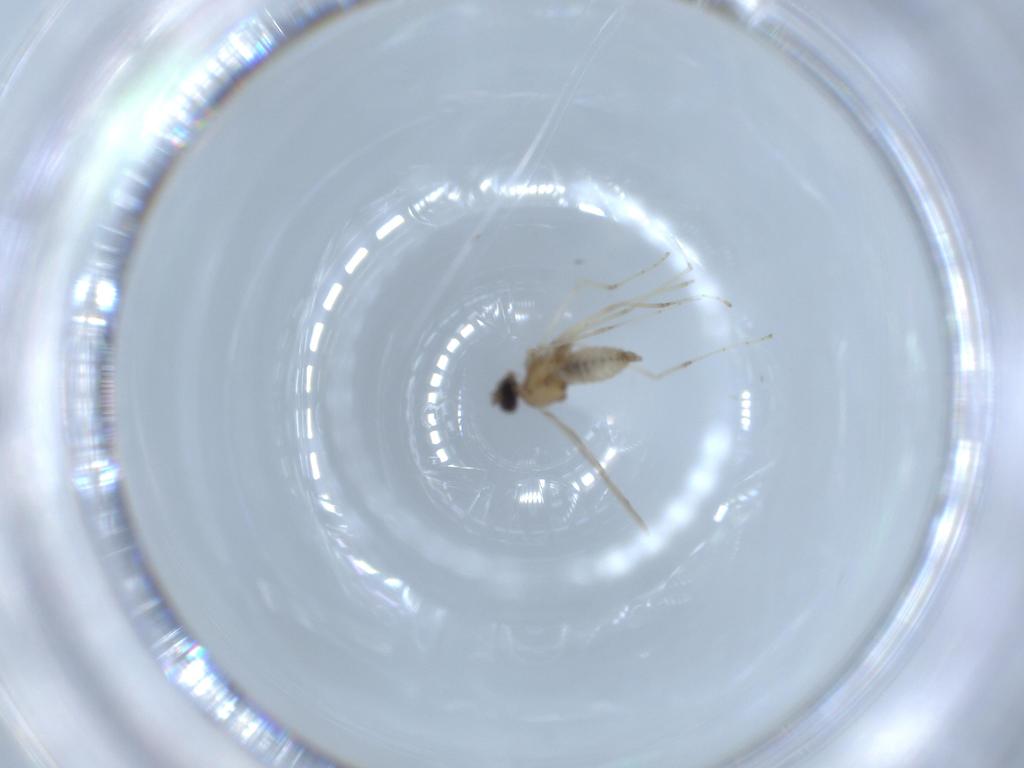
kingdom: Animalia
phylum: Arthropoda
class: Insecta
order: Diptera
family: Cecidomyiidae
